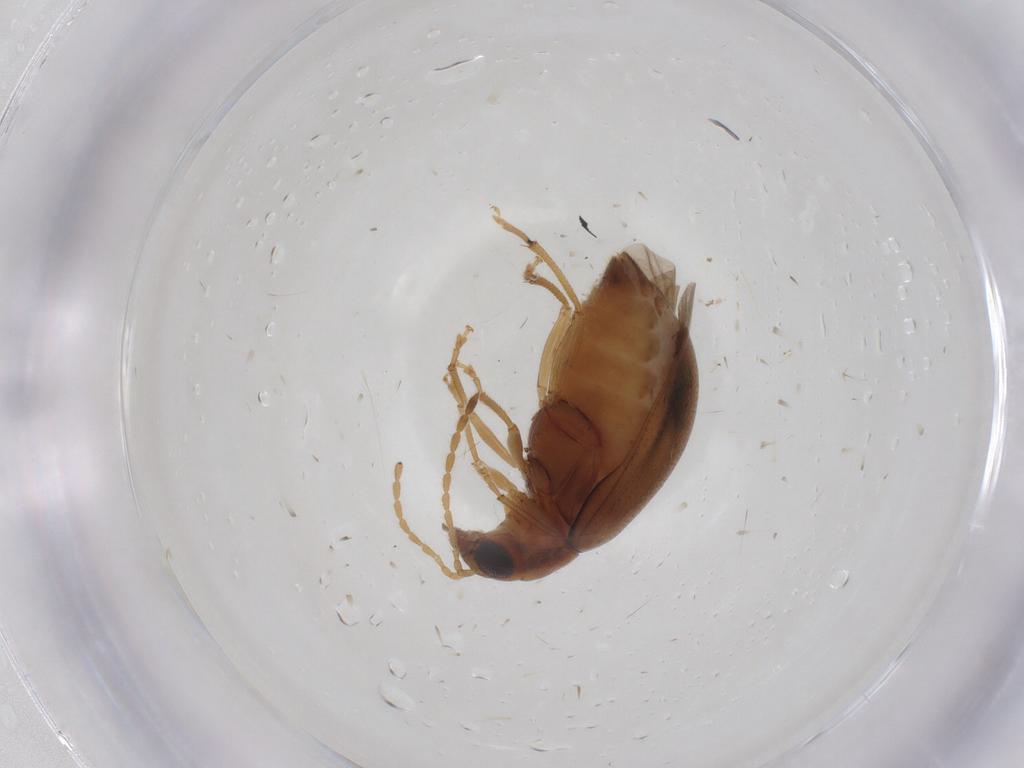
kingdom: Animalia
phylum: Arthropoda
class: Insecta
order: Coleoptera
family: Chrysomelidae
